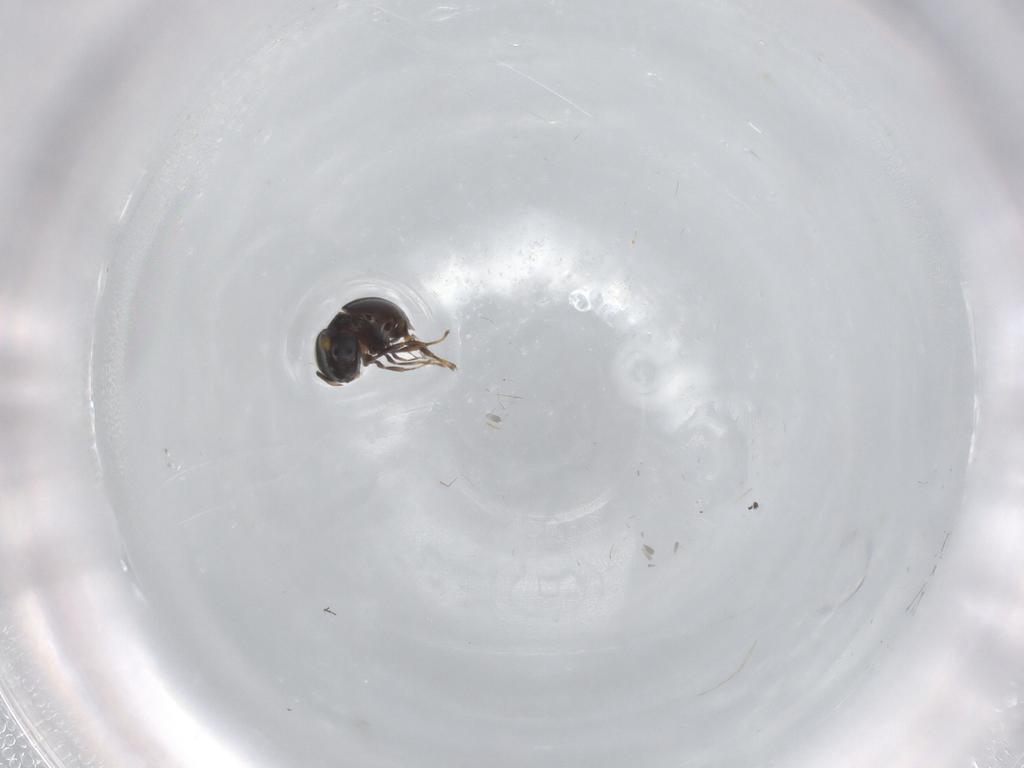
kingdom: Animalia
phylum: Arthropoda
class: Insecta
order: Hymenoptera
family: Scelionidae
